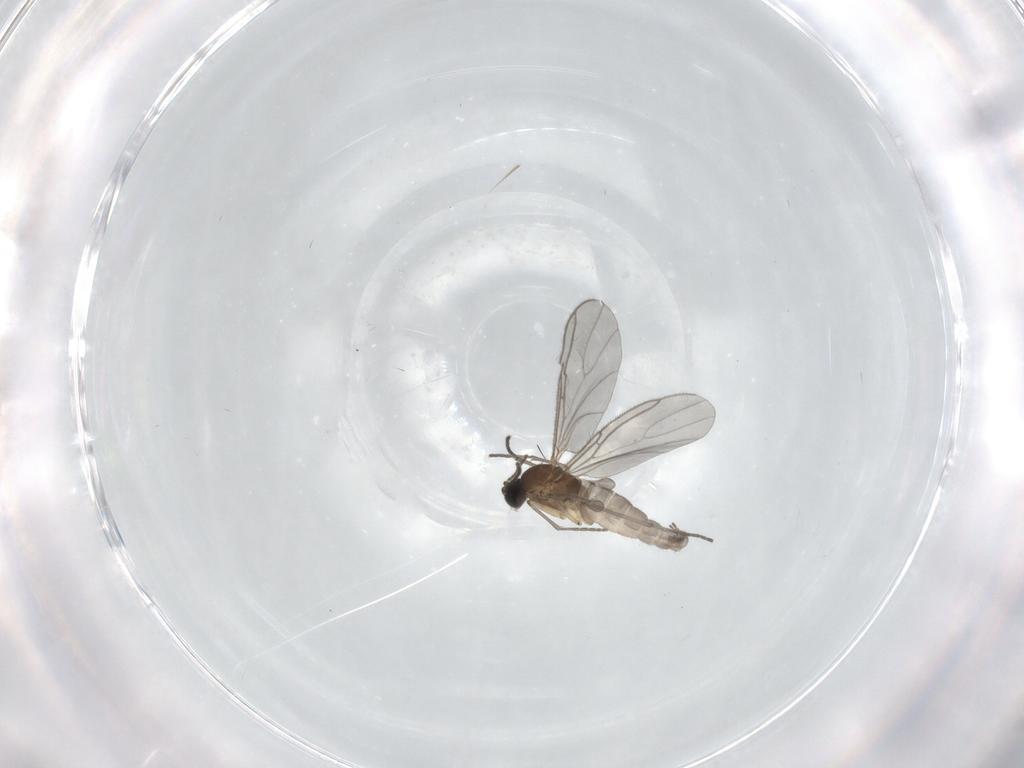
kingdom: Animalia
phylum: Arthropoda
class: Insecta
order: Diptera
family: Sciaridae
